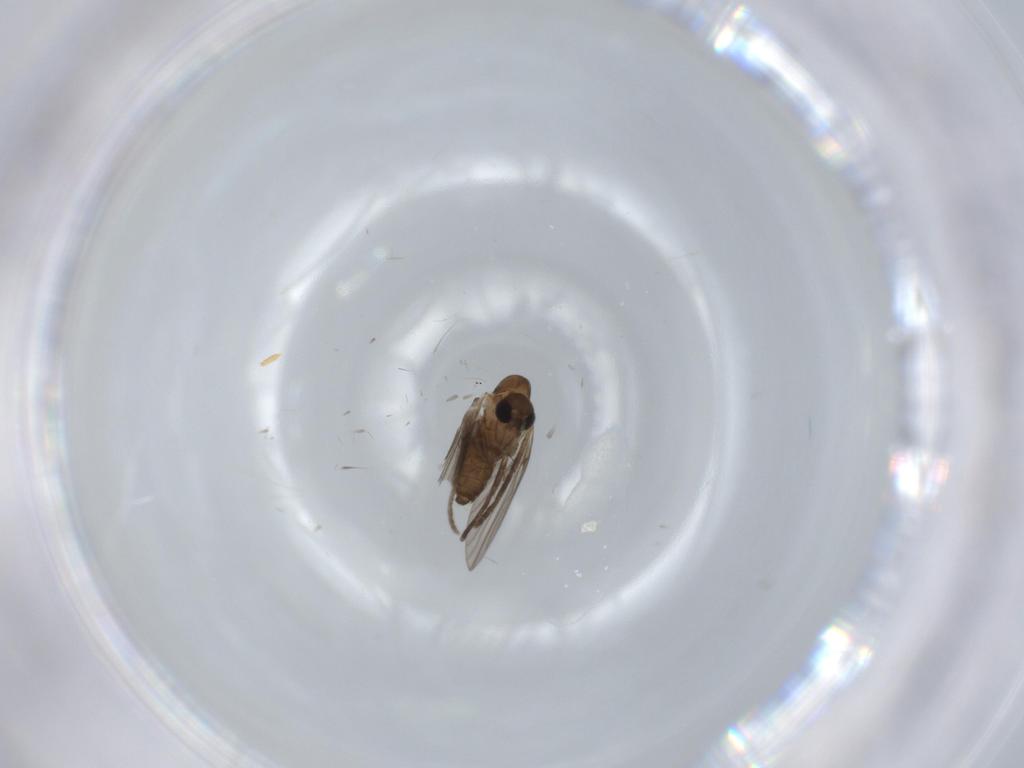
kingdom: Animalia
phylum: Arthropoda
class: Insecta
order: Diptera
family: Psychodidae
